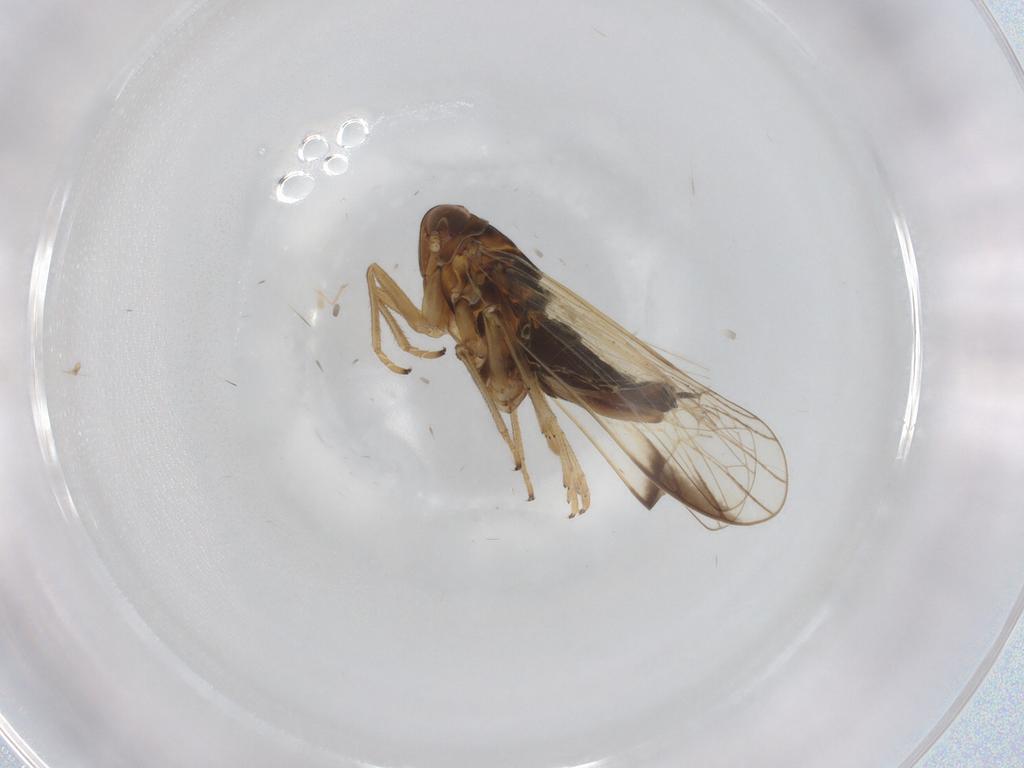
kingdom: Animalia
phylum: Arthropoda
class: Insecta
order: Hemiptera
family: Delphacidae
